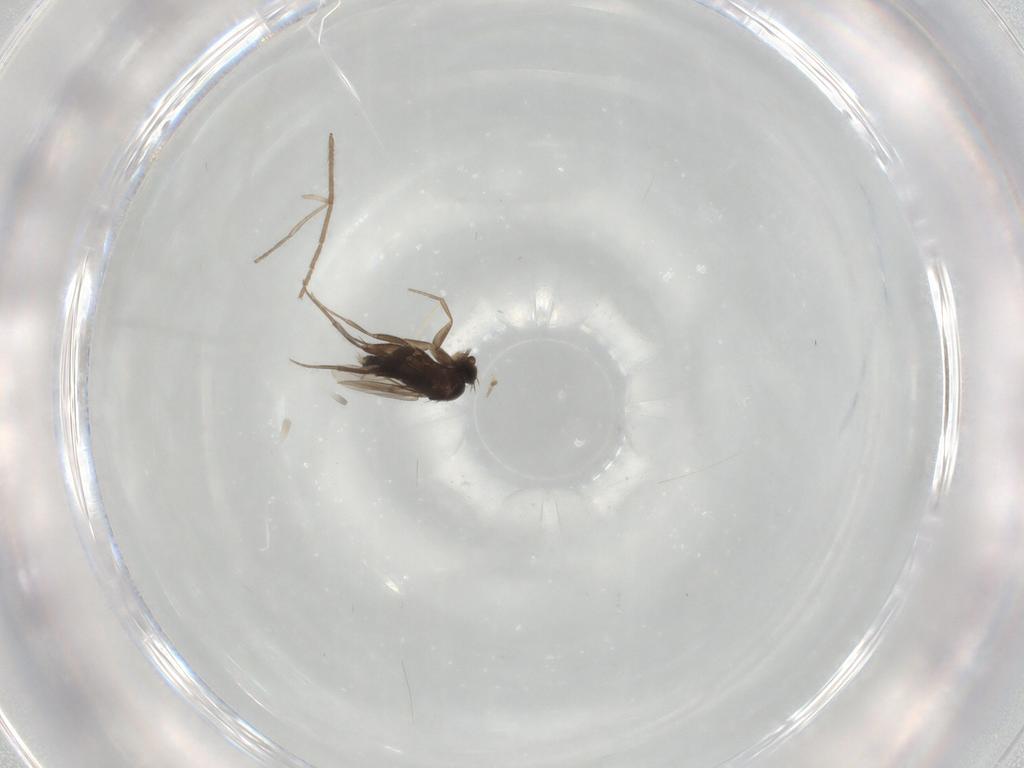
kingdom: Animalia
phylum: Arthropoda
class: Insecta
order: Diptera
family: Phoridae
